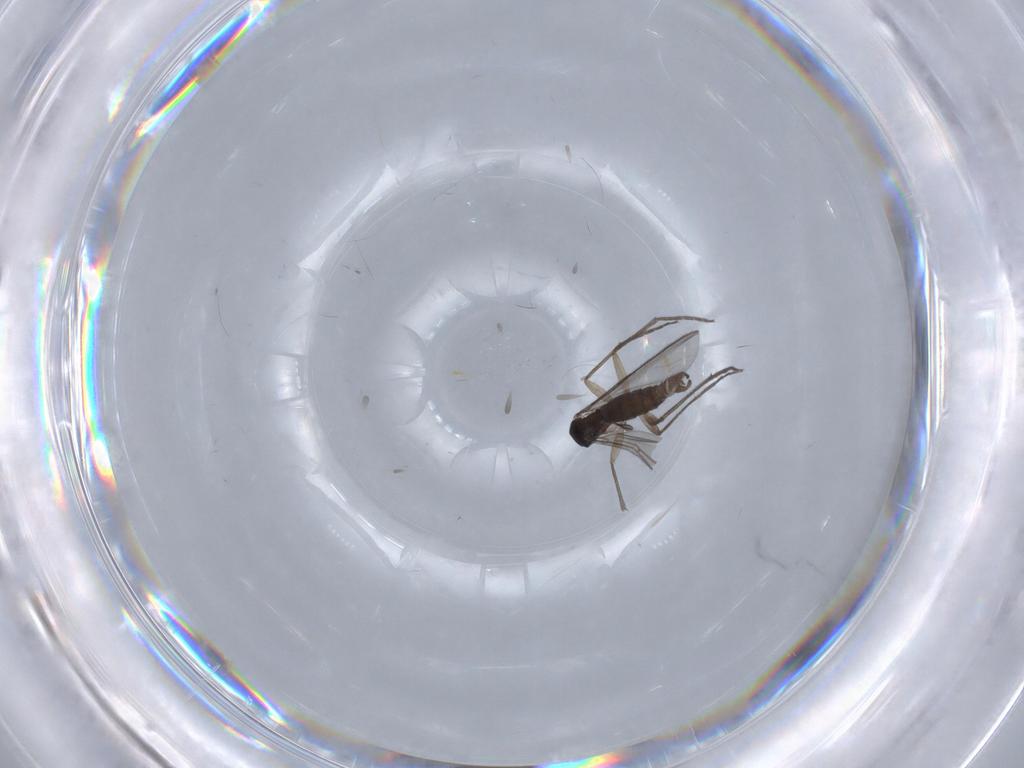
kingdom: Animalia
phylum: Arthropoda
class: Insecta
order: Diptera
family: Sciaridae
